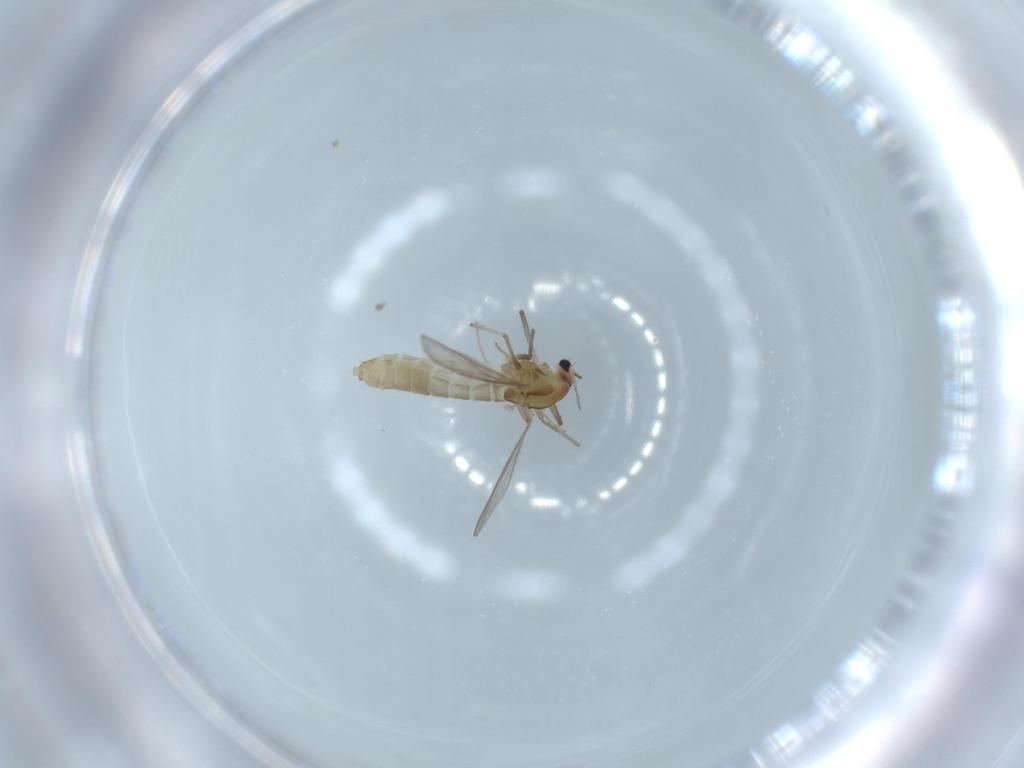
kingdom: Animalia
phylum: Arthropoda
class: Insecta
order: Diptera
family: Chironomidae
